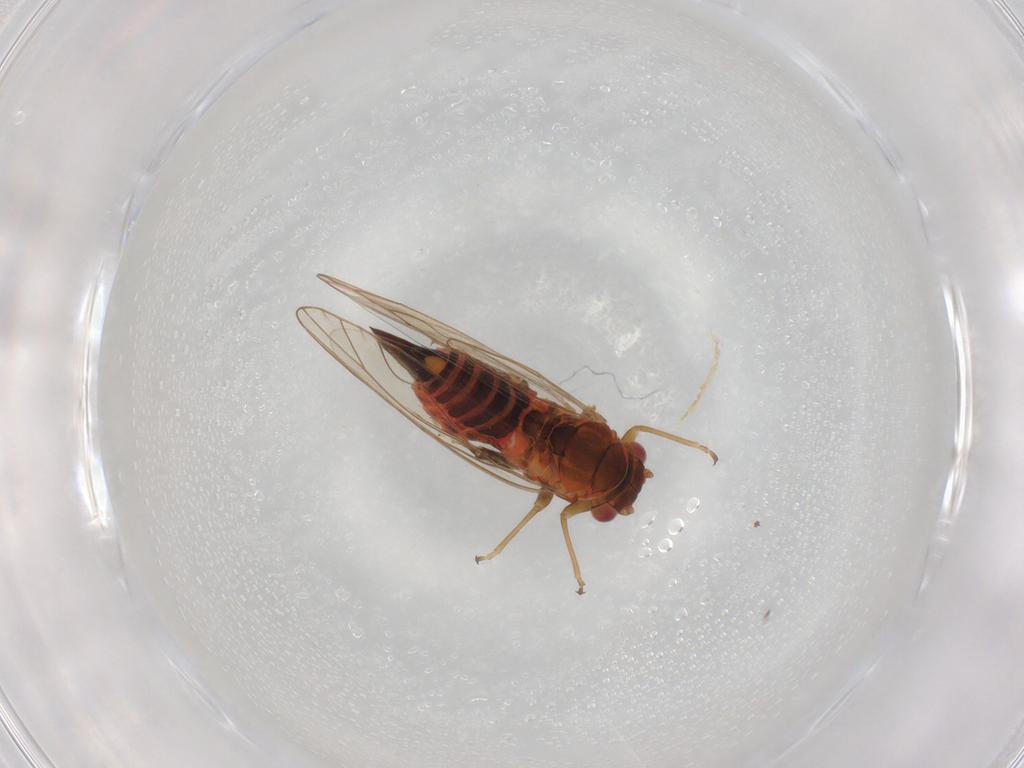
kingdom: Animalia
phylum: Arthropoda
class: Insecta
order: Hemiptera
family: Psyllidae
